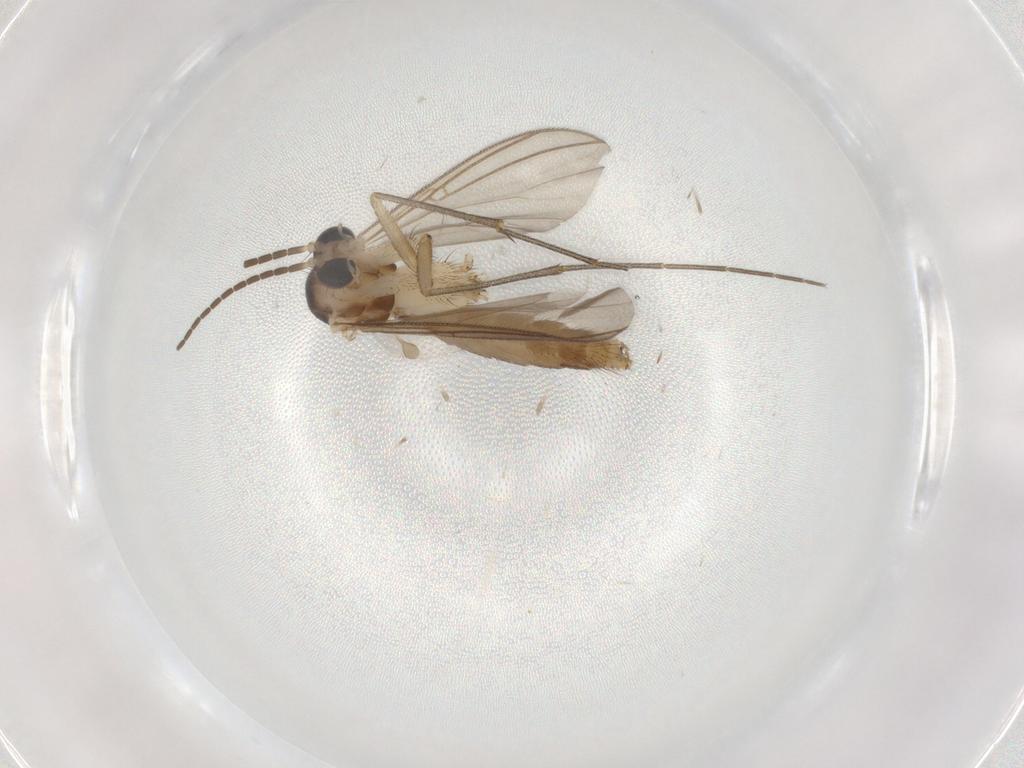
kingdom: Animalia
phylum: Arthropoda
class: Insecta
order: Diptera
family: Mycetophilidae
